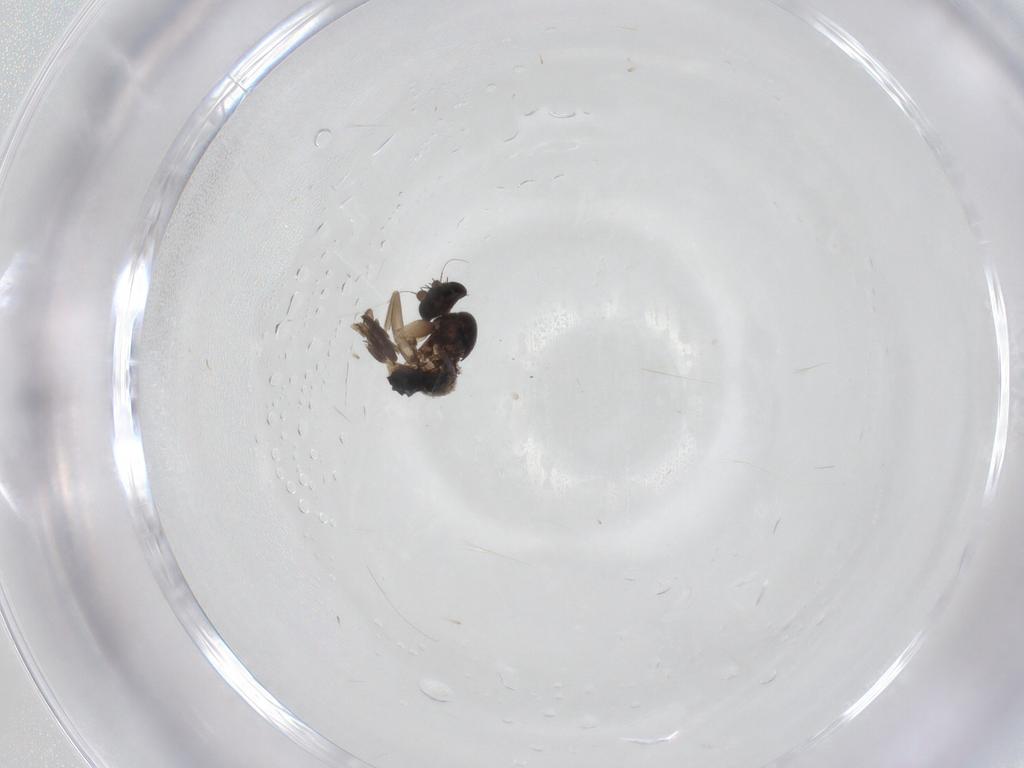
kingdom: Animalia
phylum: Arthropoda
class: Insecta
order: Diptera
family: Phoridae
